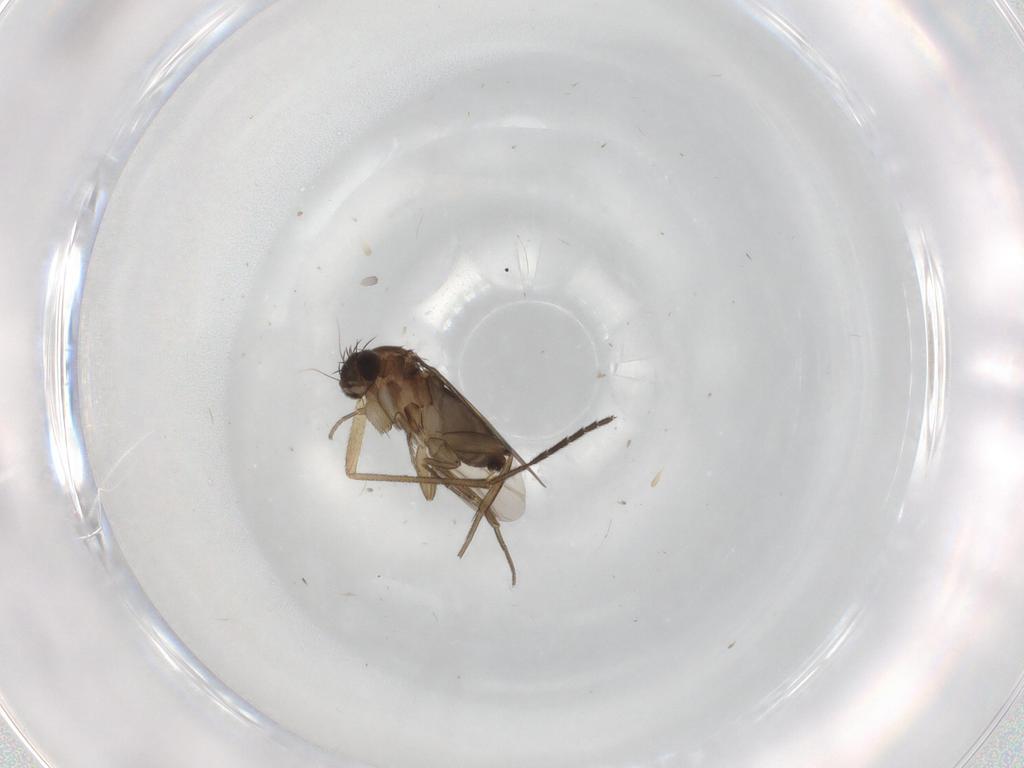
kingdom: Animalia
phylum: Arthropoda
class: Insecta
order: Diptera
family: Sciaridae
